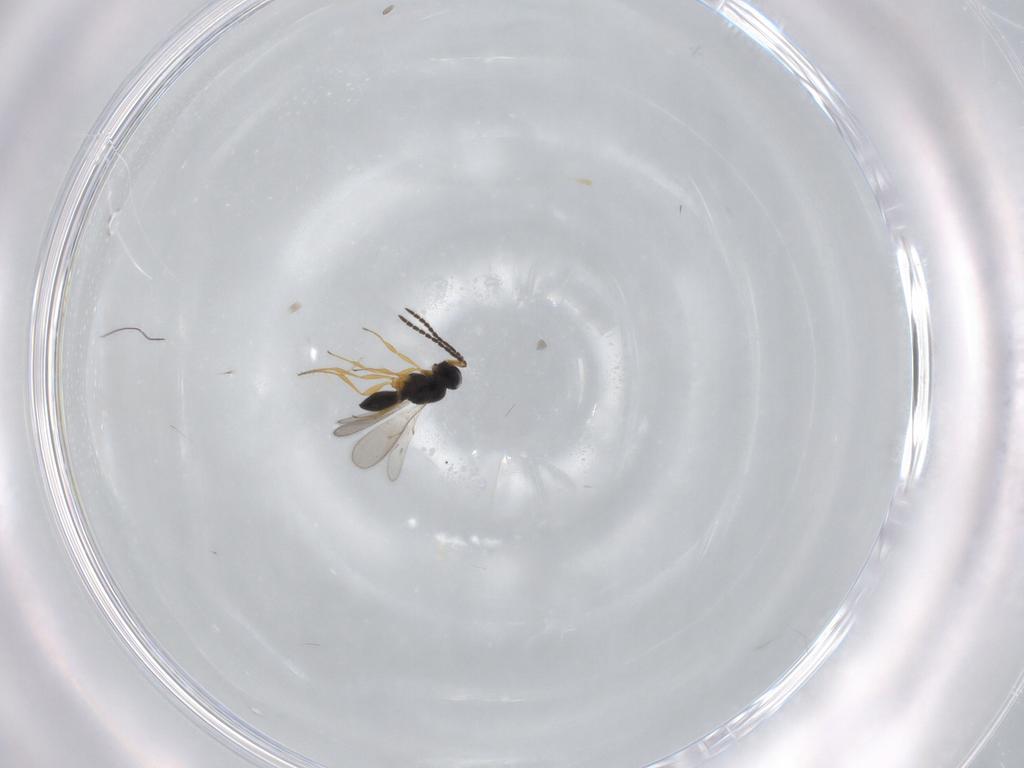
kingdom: Animalia
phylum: Arthropoda
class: Insecta
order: Hymenoptera
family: Scelionidae
